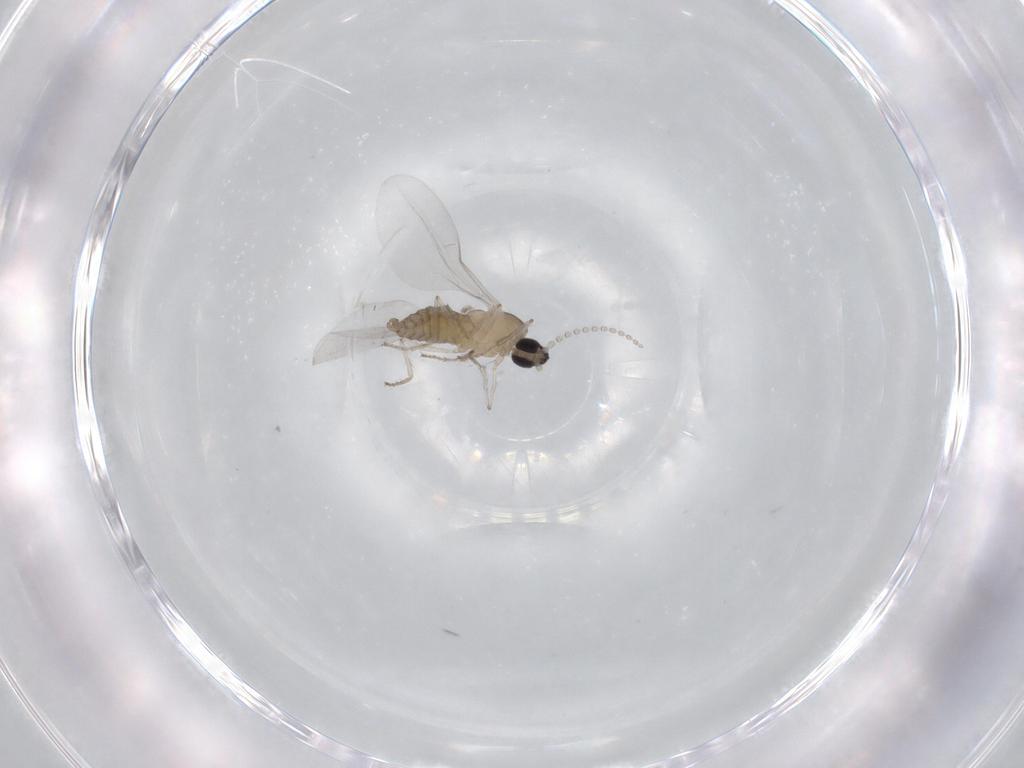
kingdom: Animalia
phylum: Arthropoda
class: Insecta
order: Diptera
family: Cecidomyiidae
